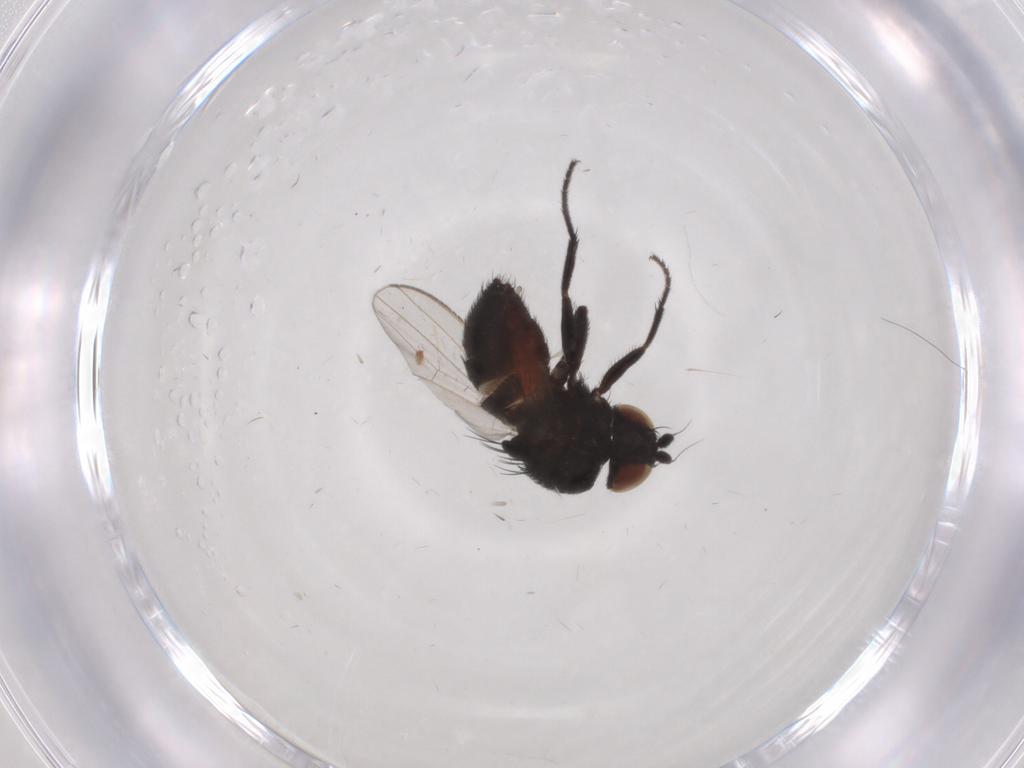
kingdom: Animalia
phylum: Arthropoda
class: Insecta
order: Diptera
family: Milichiidae
